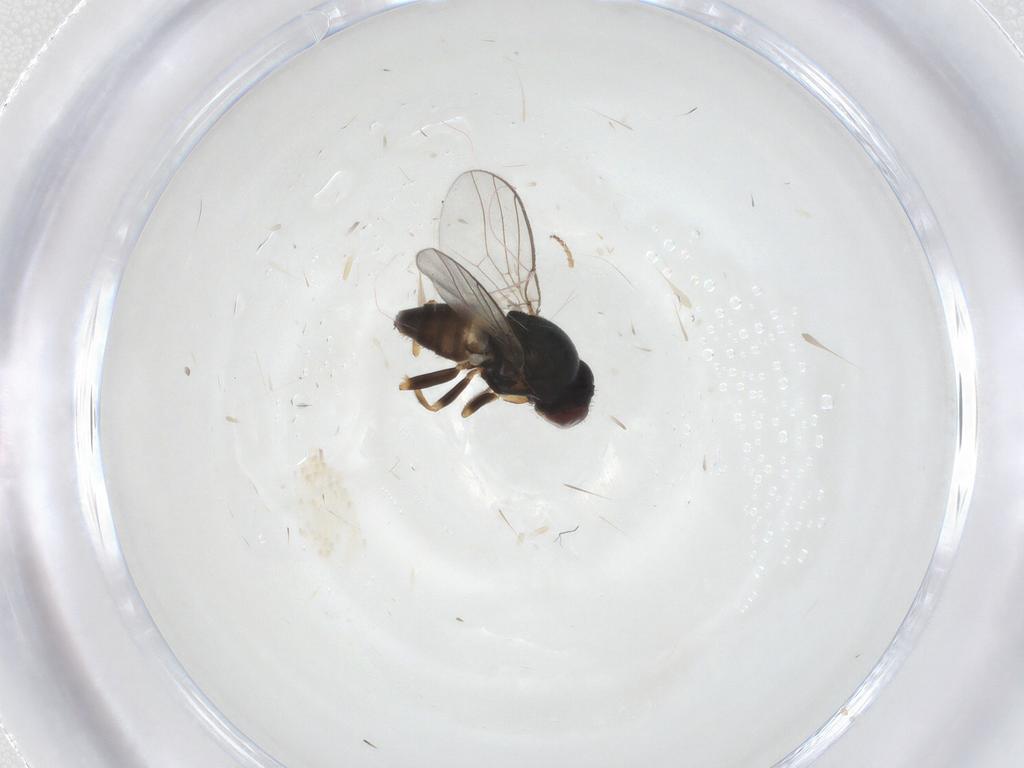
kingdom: Animalia
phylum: Arthropoda
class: Insecta
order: Diptera
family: Chloropidae
